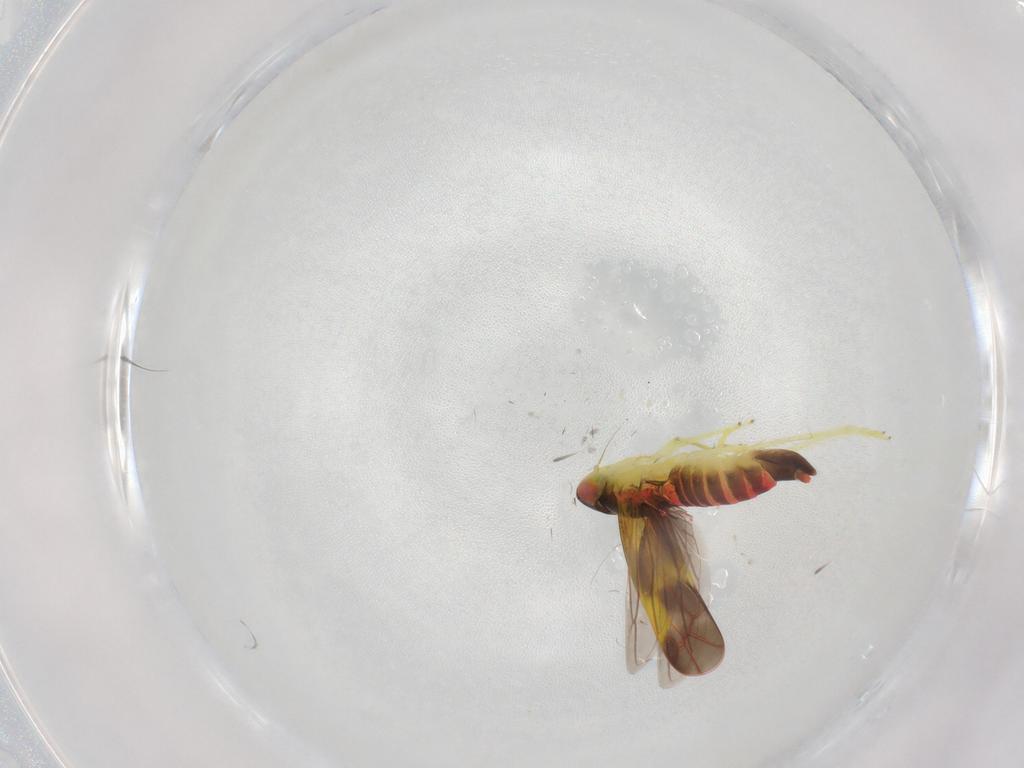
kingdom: Animalia
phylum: Arthropoda
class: Insecta
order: Hemiptera
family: Cicadellidae
